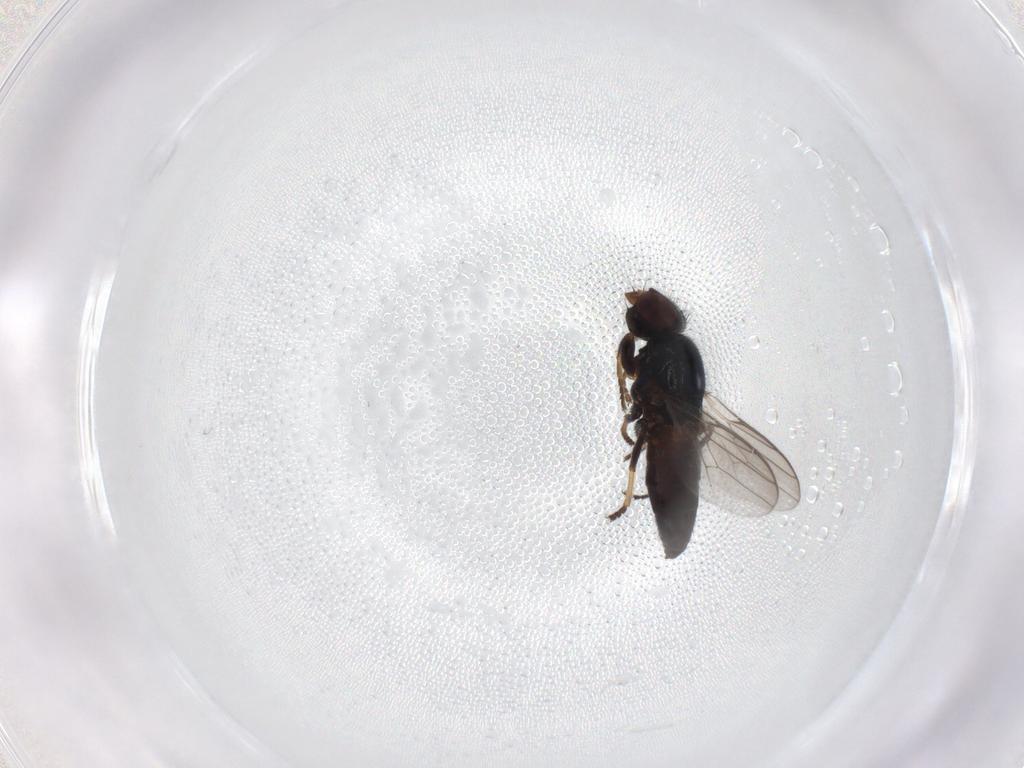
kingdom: Animalia
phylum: Arthropoda
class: Insecta
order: Diptera
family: Chloropidae
